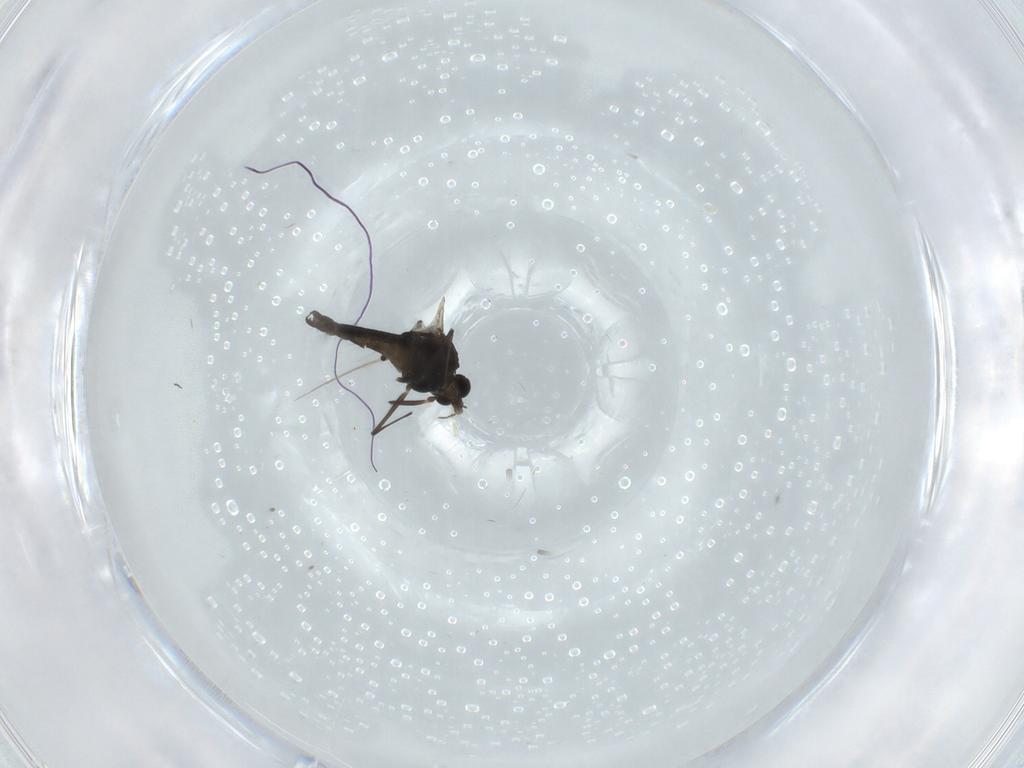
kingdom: Animalia
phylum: Arthropoda
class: Insecta
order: Diptera
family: Chironomidae
